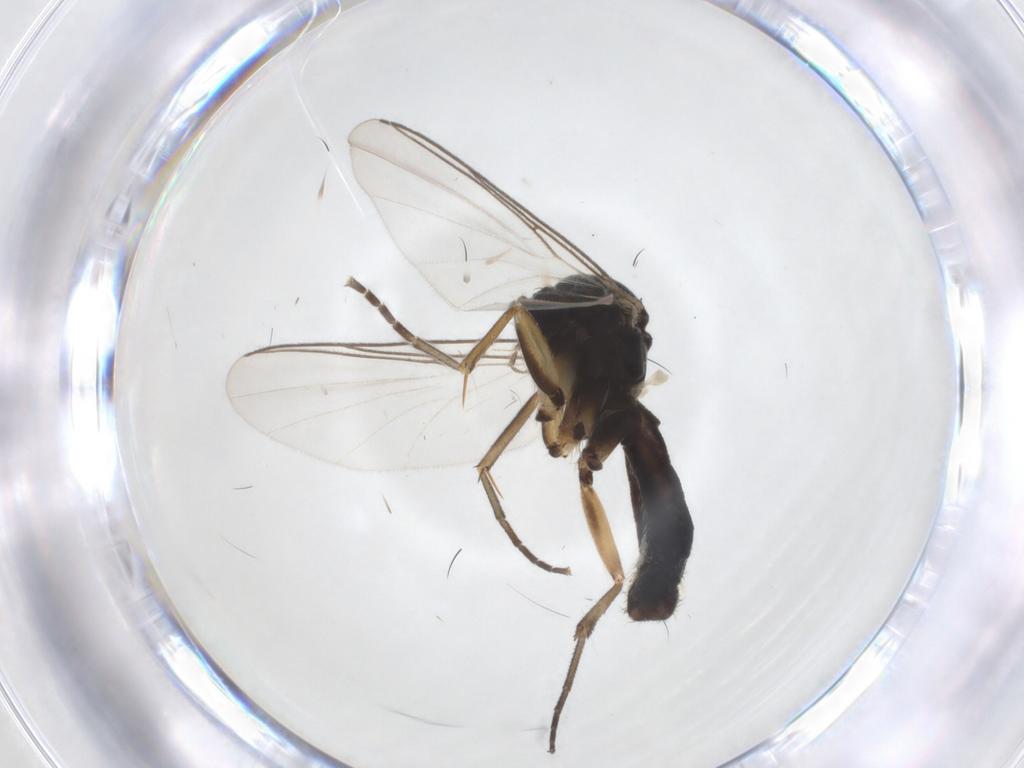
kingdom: Animalia
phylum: Arthropoda
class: Insecta
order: Diptera
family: Mycetophilidae
